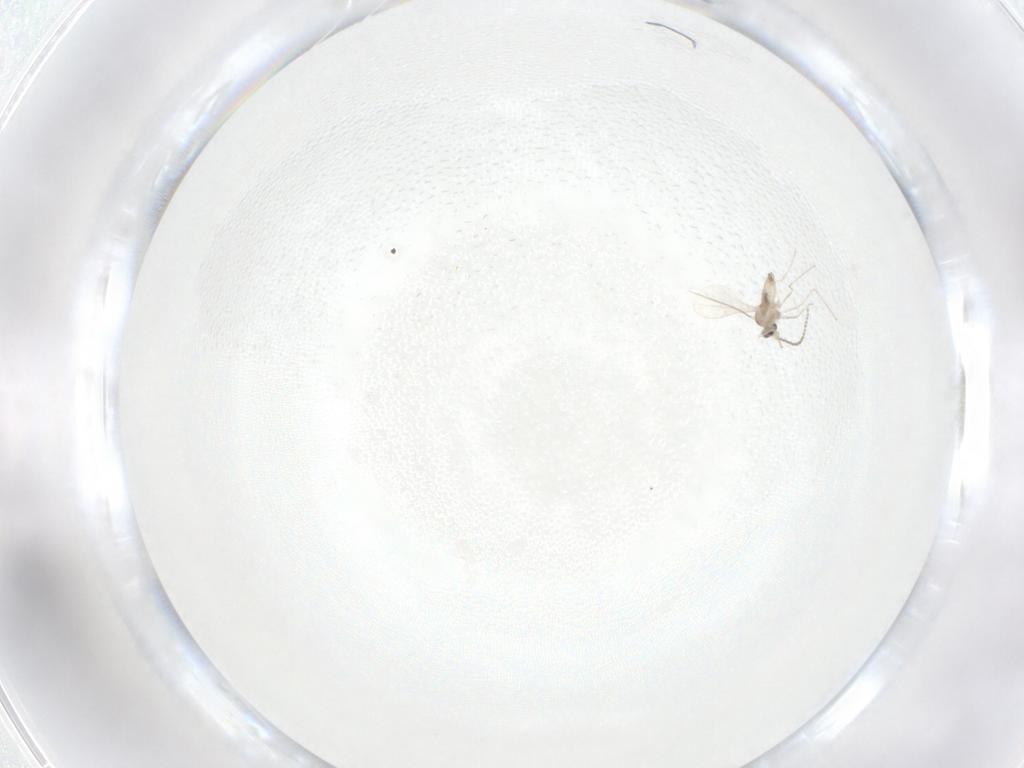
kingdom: Animalia
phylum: Arthropoda
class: Insecta
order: Diptera
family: Cecidomyiidae
